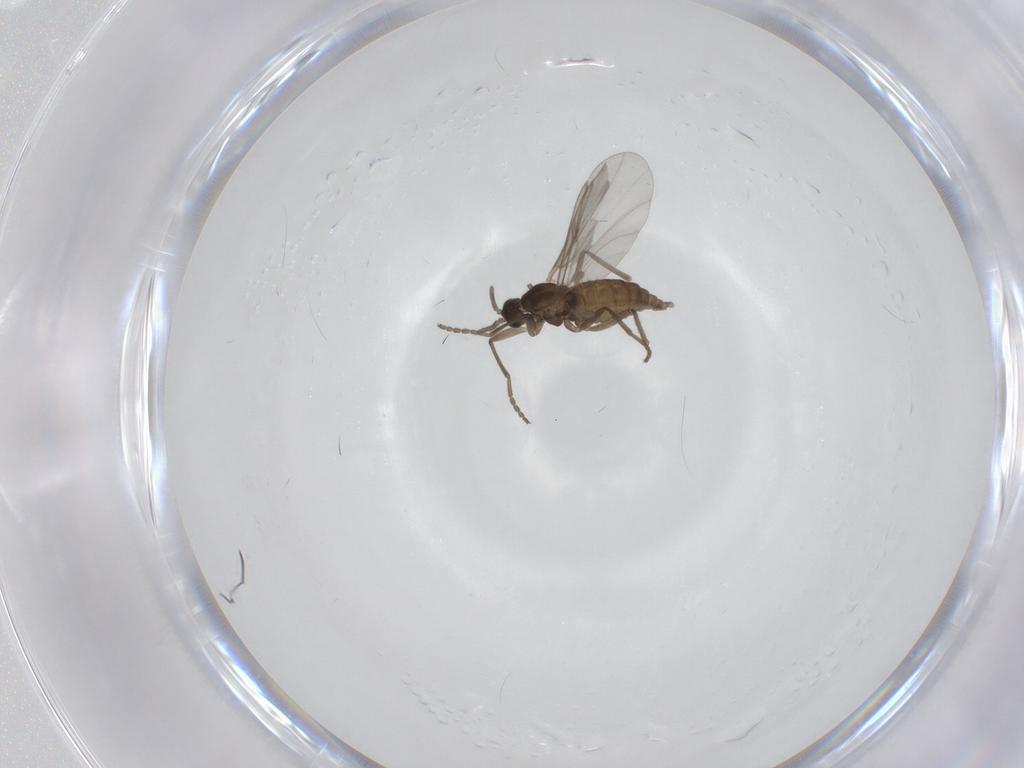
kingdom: Animalia
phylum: Arthropoda
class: Insecta
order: Diptera
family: Cecidomyiidae
